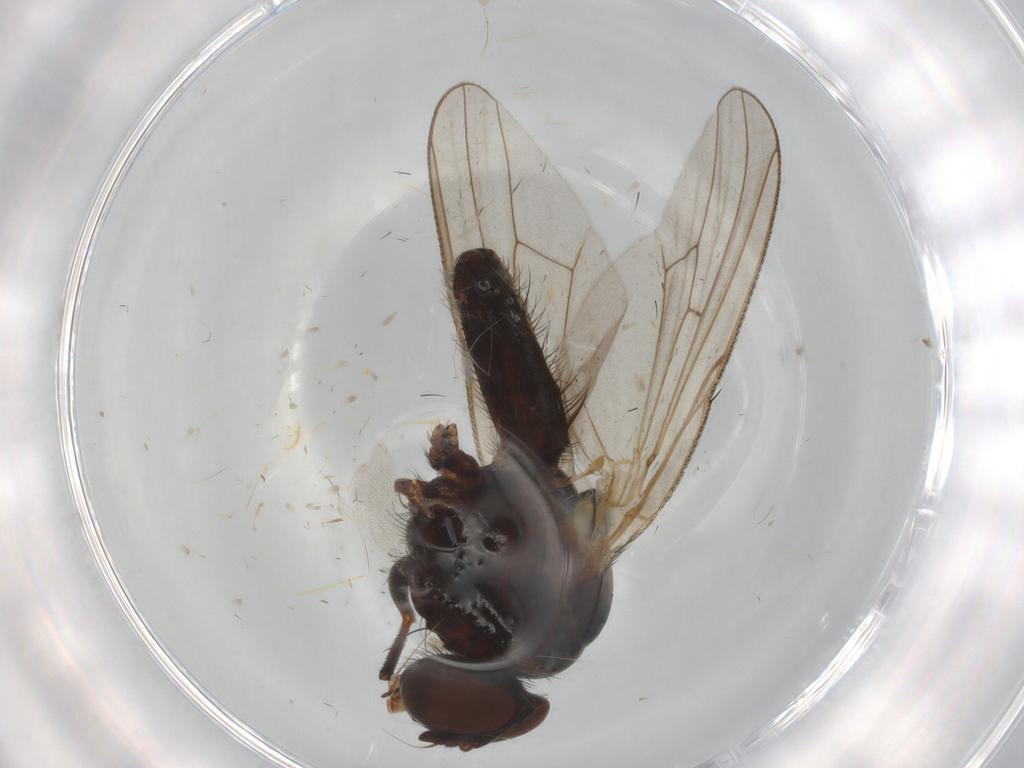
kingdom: Animalia
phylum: Arthropoda
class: Insecta
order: Diptera
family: Anthomyiidae
